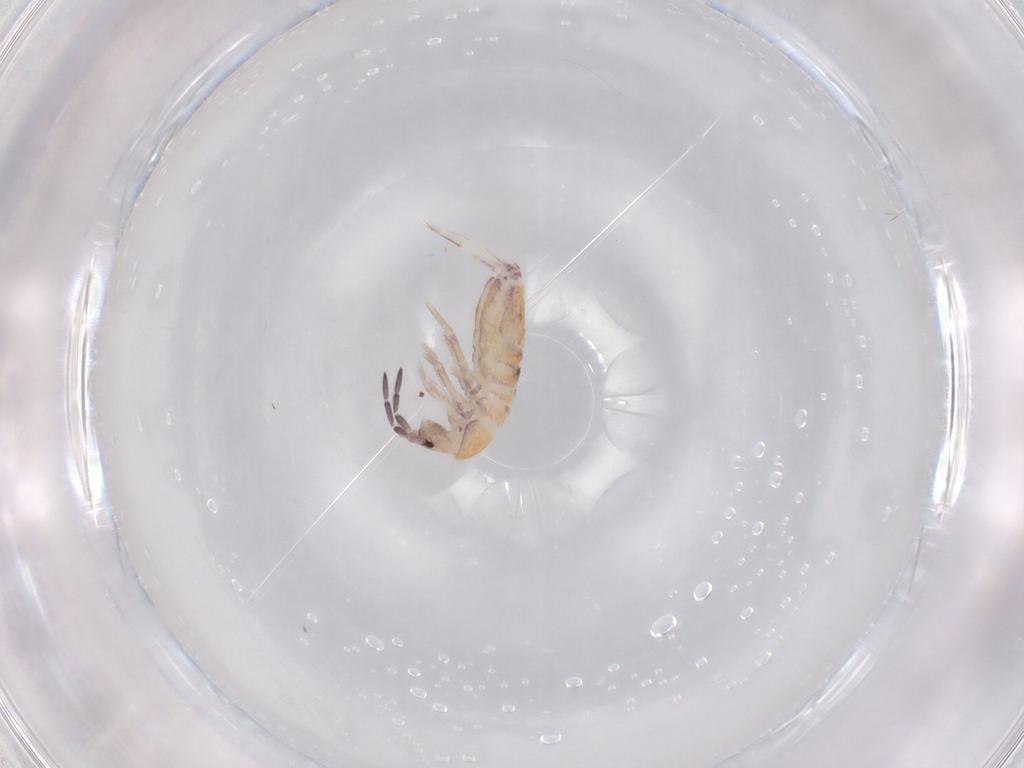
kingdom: Animalia
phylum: Arthropoda
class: Collembola
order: Entomobryomorpha
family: Entomobryidae
